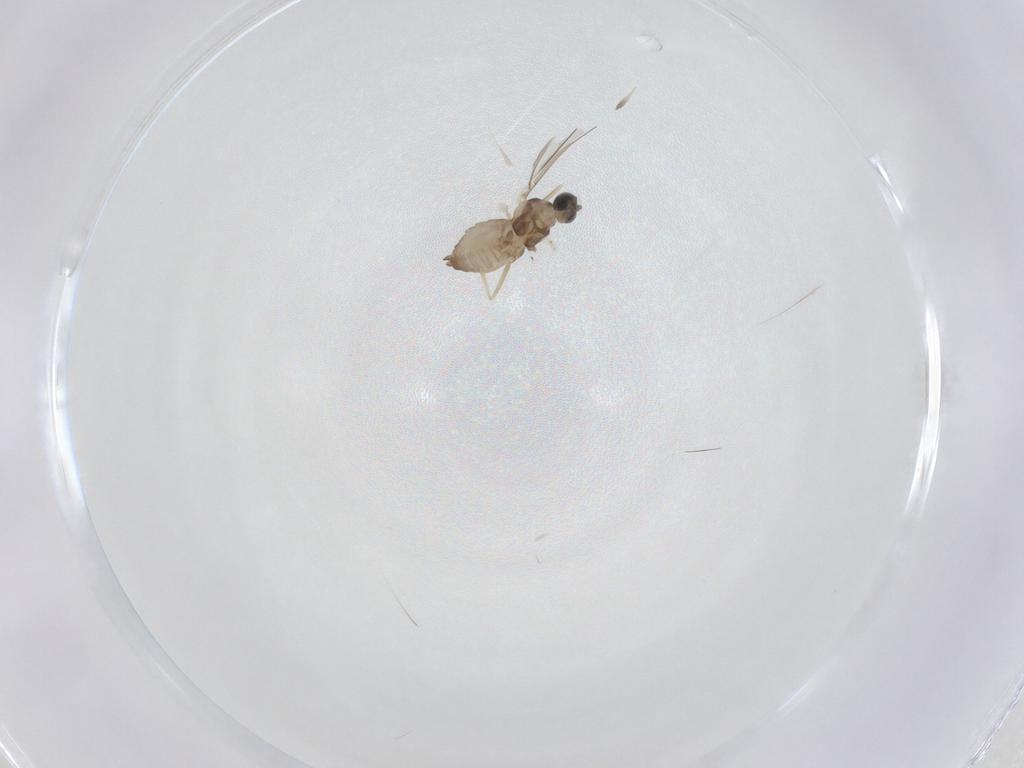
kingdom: Animalia
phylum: Arthropoda
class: Insecta
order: Diptera
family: Cecidomyiidae
